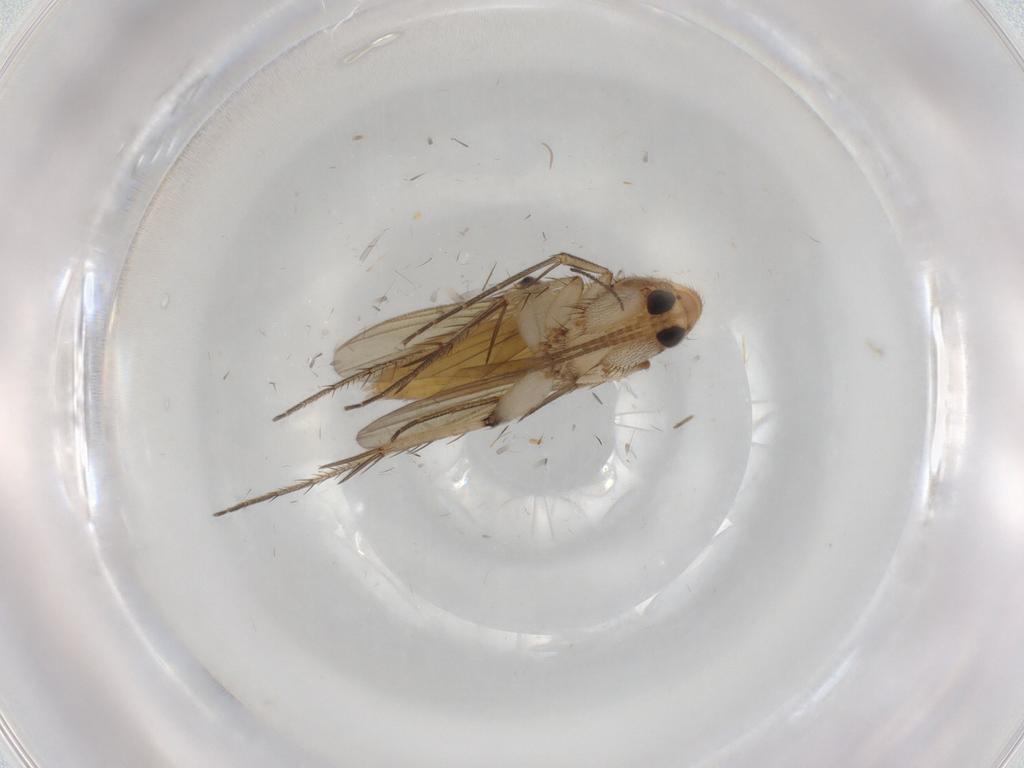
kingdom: Animalia
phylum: Arthropoda
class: Insecta
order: Diptera
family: Mycetophilidae
